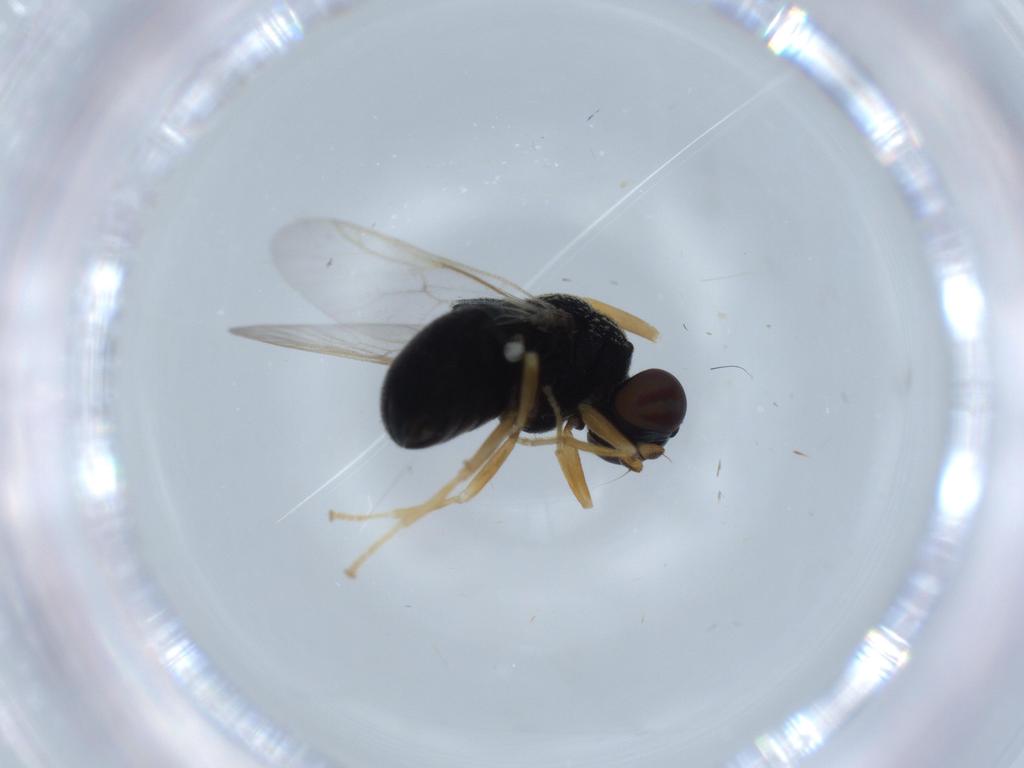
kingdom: Animalia
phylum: Arthropoda
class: Insecta
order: Diptera
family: Stratiomyidae
